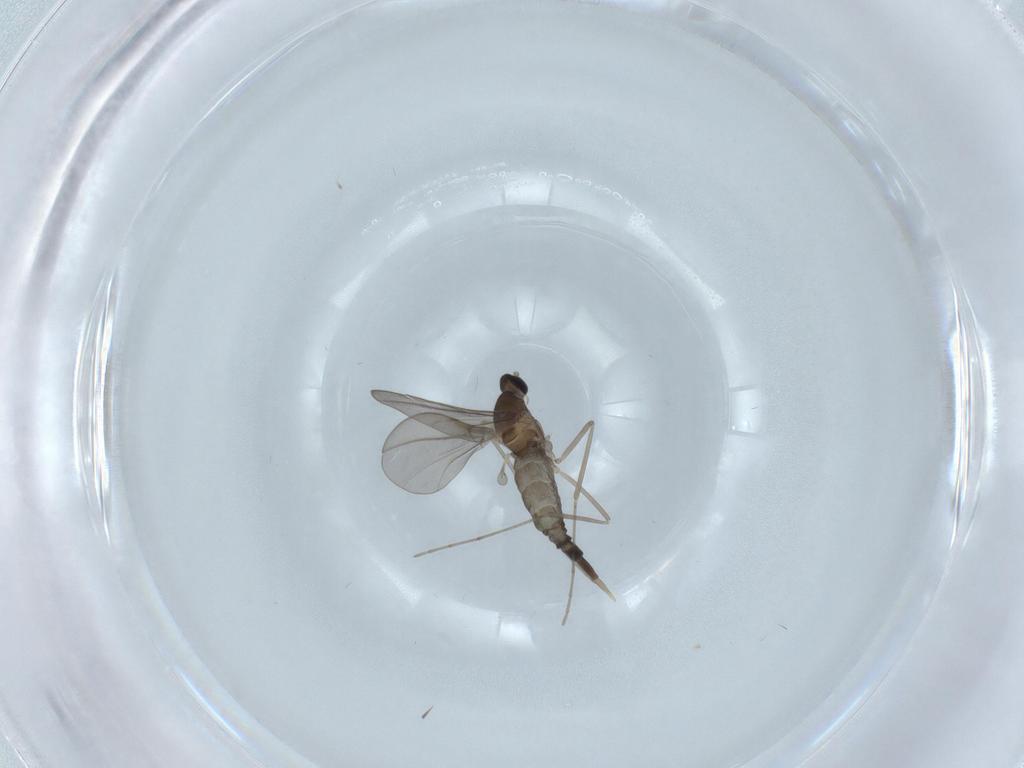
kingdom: Animalia
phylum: Arthropoda
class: Insecta
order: Diptera
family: Cecidomyiidae
